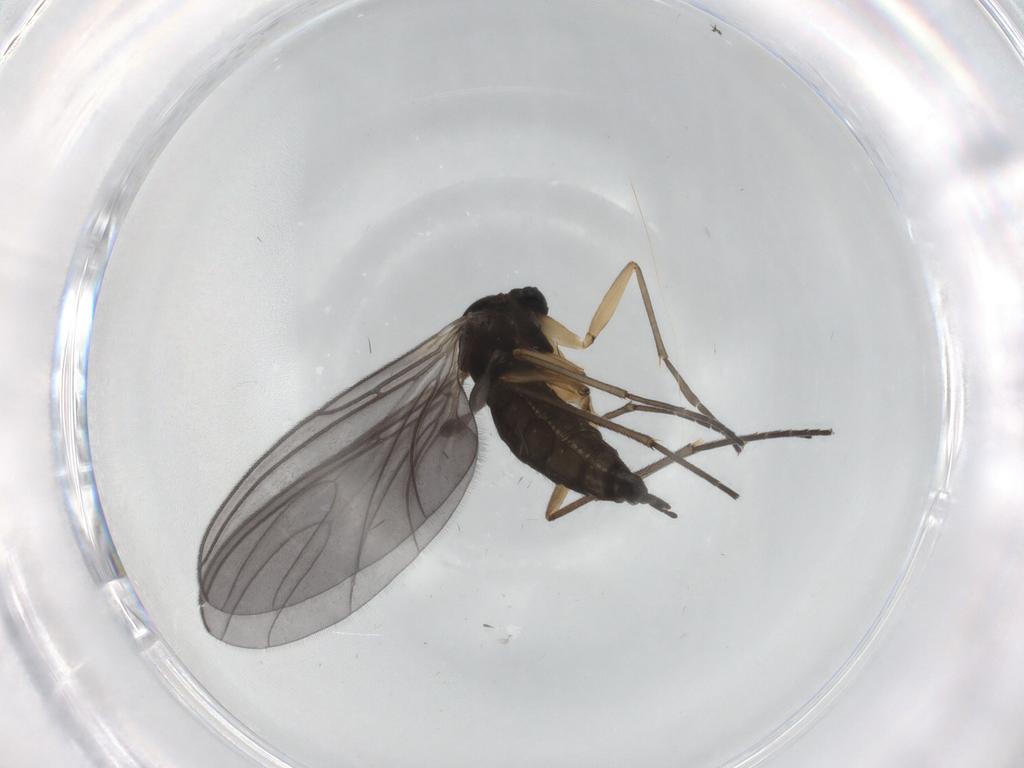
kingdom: Animalia
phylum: Arthropoda
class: Insecta
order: Diptera
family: Sciaridae
